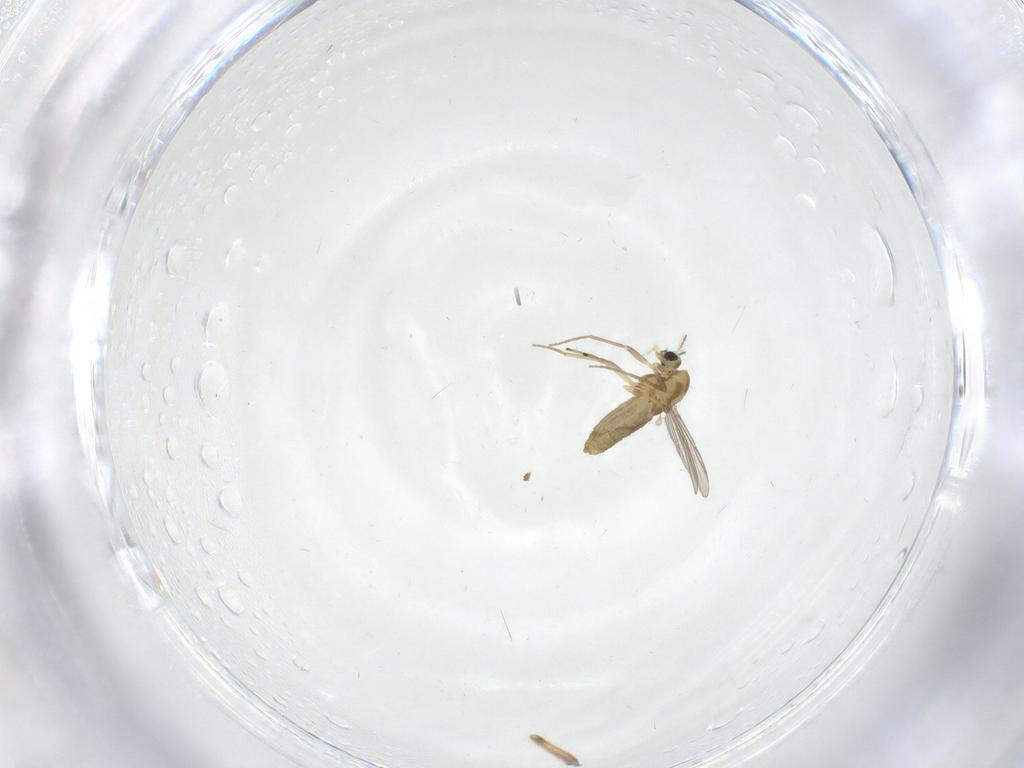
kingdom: Animalia
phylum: Arthropoda
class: Insecta
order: Diptera
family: Chironomidae
